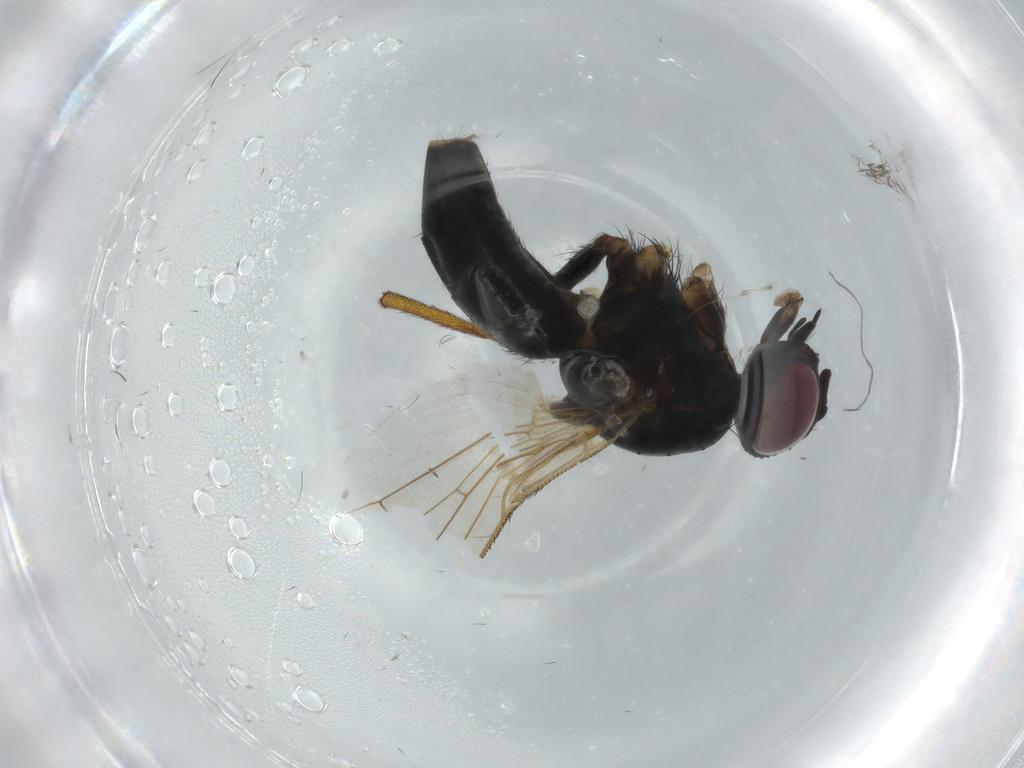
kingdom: Animalia
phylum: Arthropoda
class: Insecta
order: Diptera
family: Muscidae
